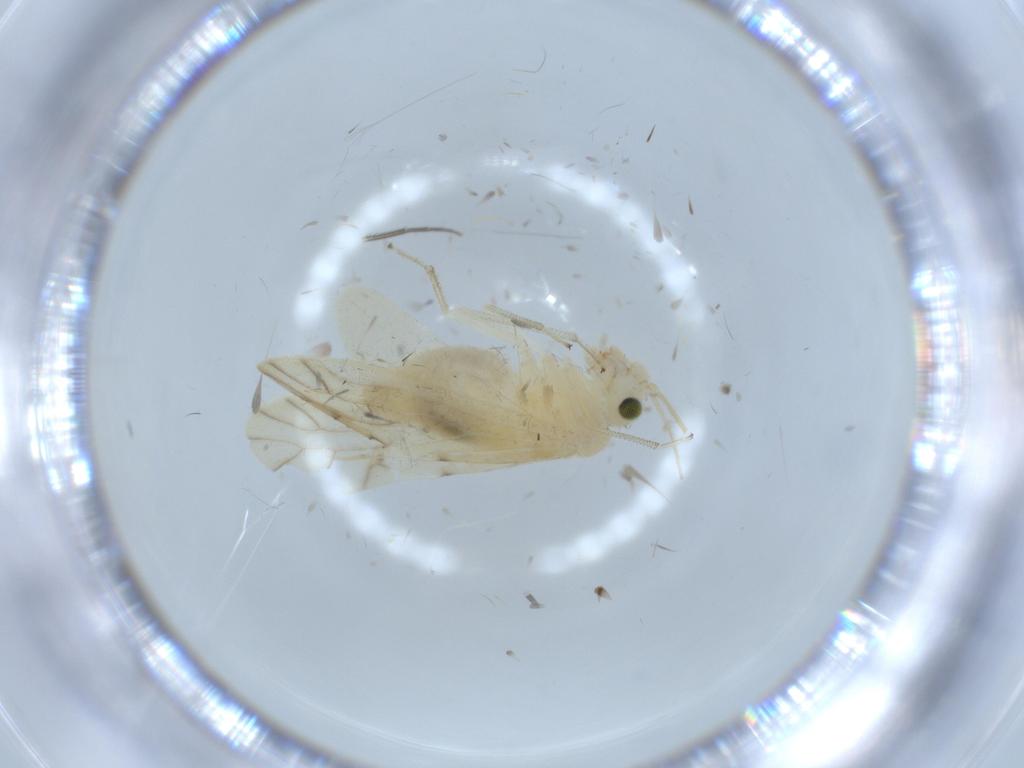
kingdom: Animalia
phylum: Arthropoda
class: Insecta
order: Psocodea
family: Caeciliusidae
